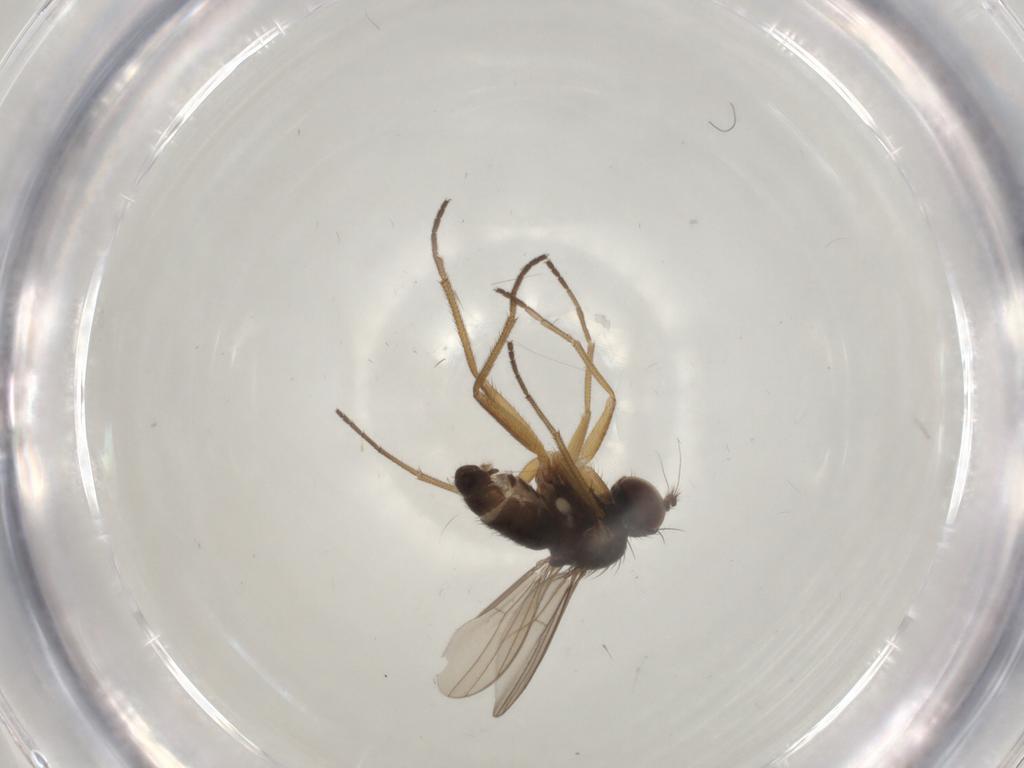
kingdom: Animalia
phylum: Arthropoda
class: Insecta
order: Diptera
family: Dolichopodidae
